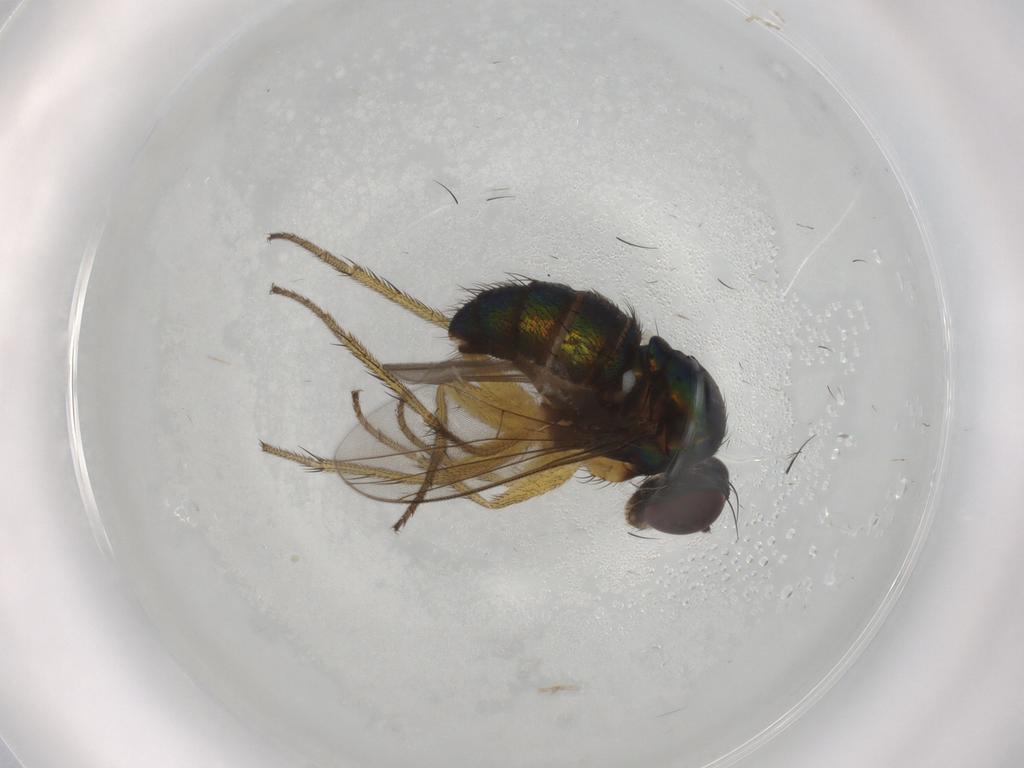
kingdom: Animalia
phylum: Arthropoda
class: Insecta
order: Diptera
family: Dolichopodidae
